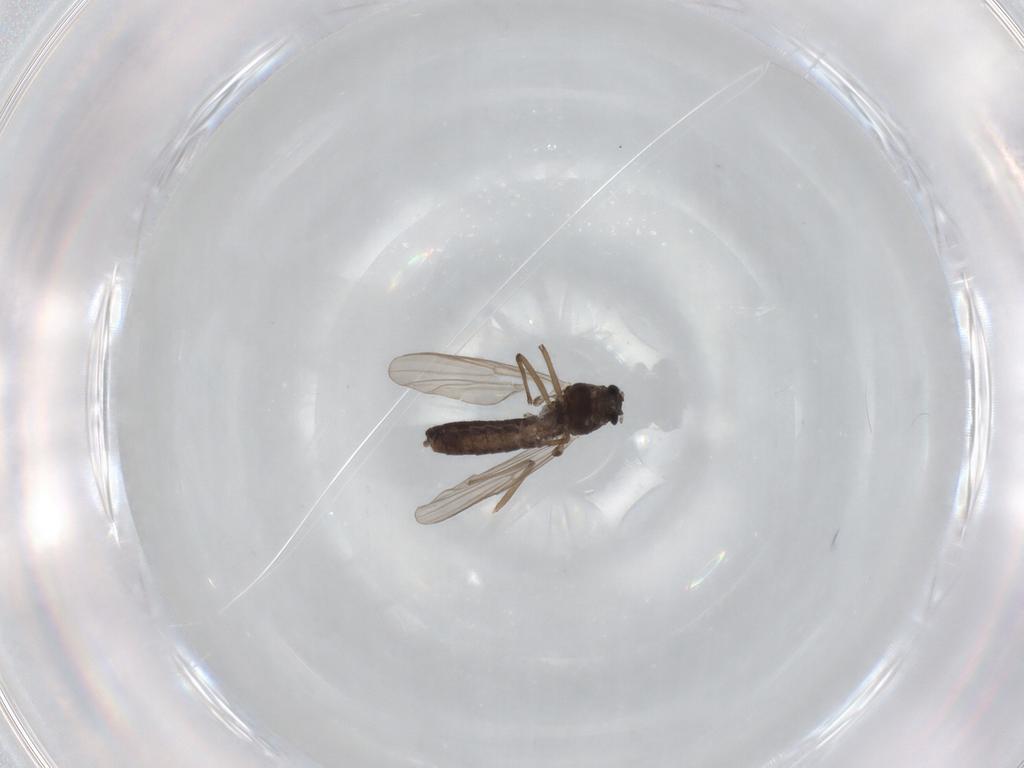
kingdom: Animalia
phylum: Arthropoda
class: Insecta
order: Diptera
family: Chironomidae
